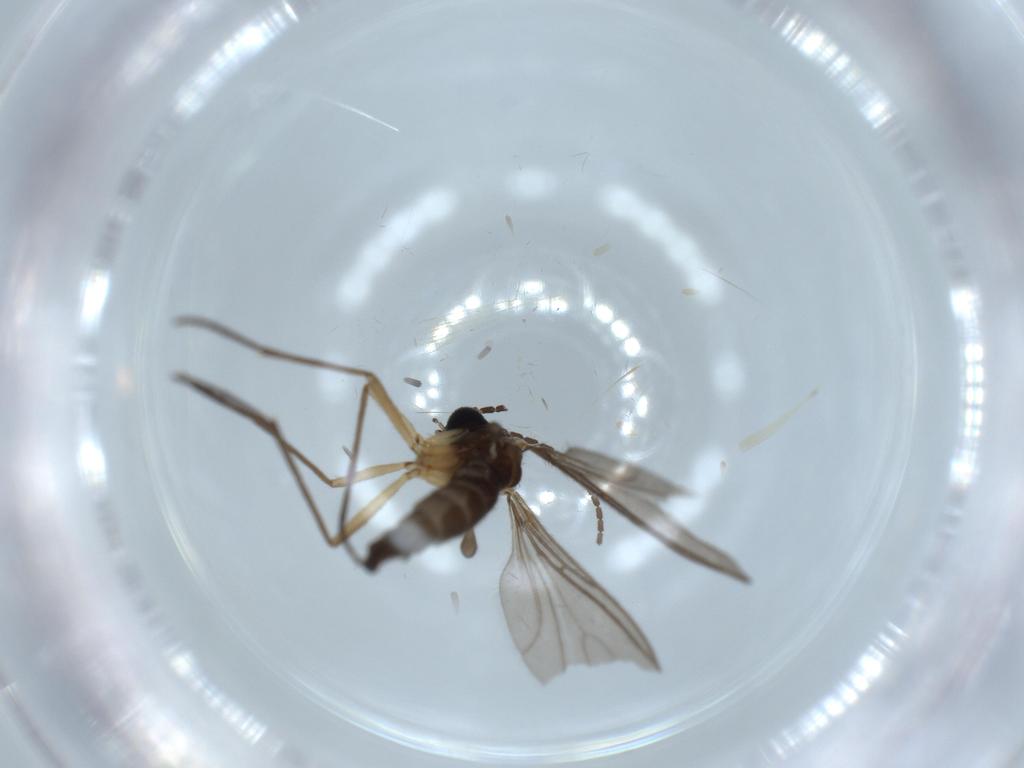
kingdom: Animalia
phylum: Arthropoda
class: Insecta
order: Diptera
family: Sciaridae
